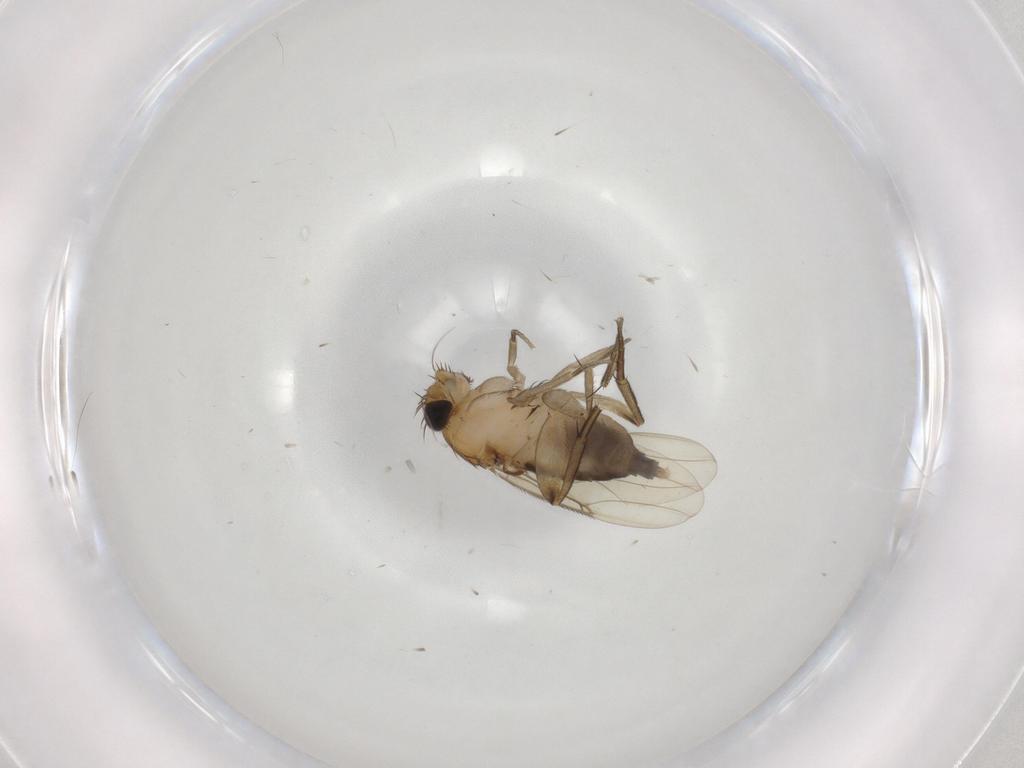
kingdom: Animalia
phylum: Arthropoda
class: Insecta
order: Diptera
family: Phoridae
